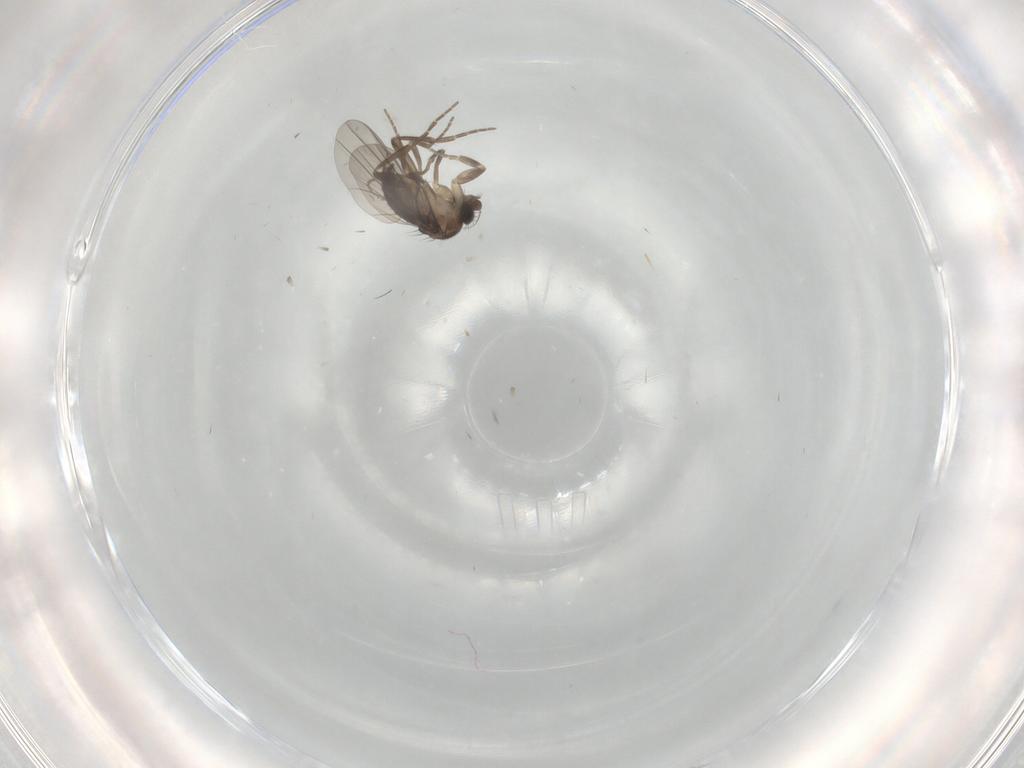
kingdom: Animalia
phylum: Arthropoda
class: Insecta
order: Diptera
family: Cecidomyiidae
